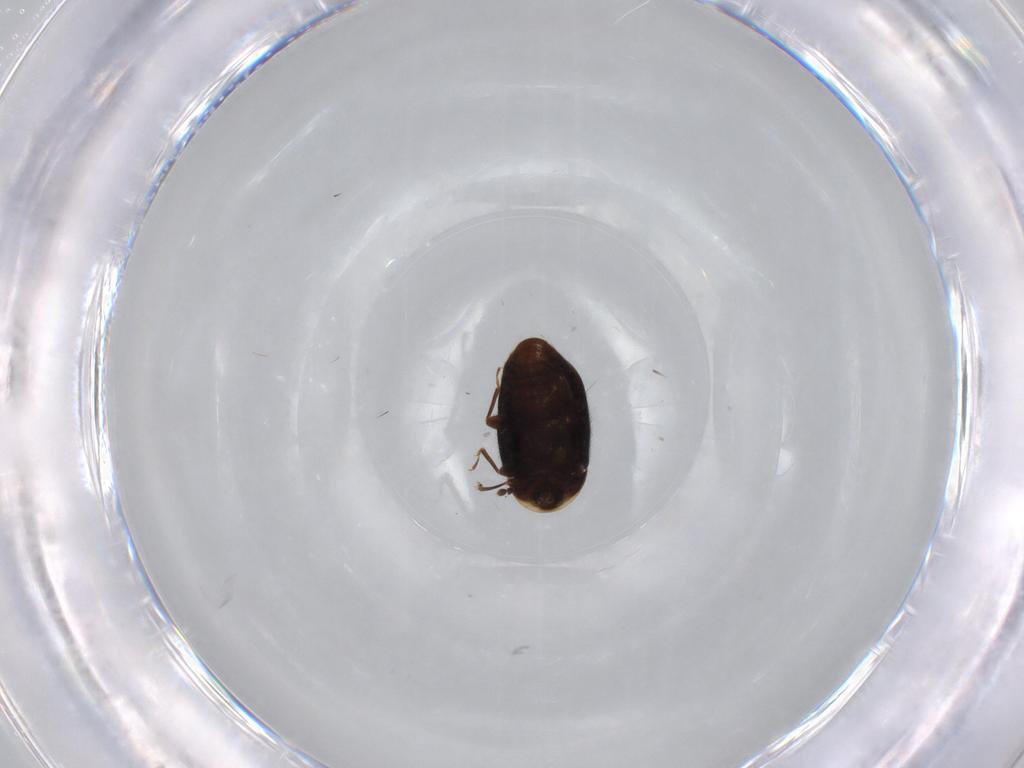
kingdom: Animalia
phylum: Arthropoda
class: Insecta
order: Coleoptera
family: Corylophidae
